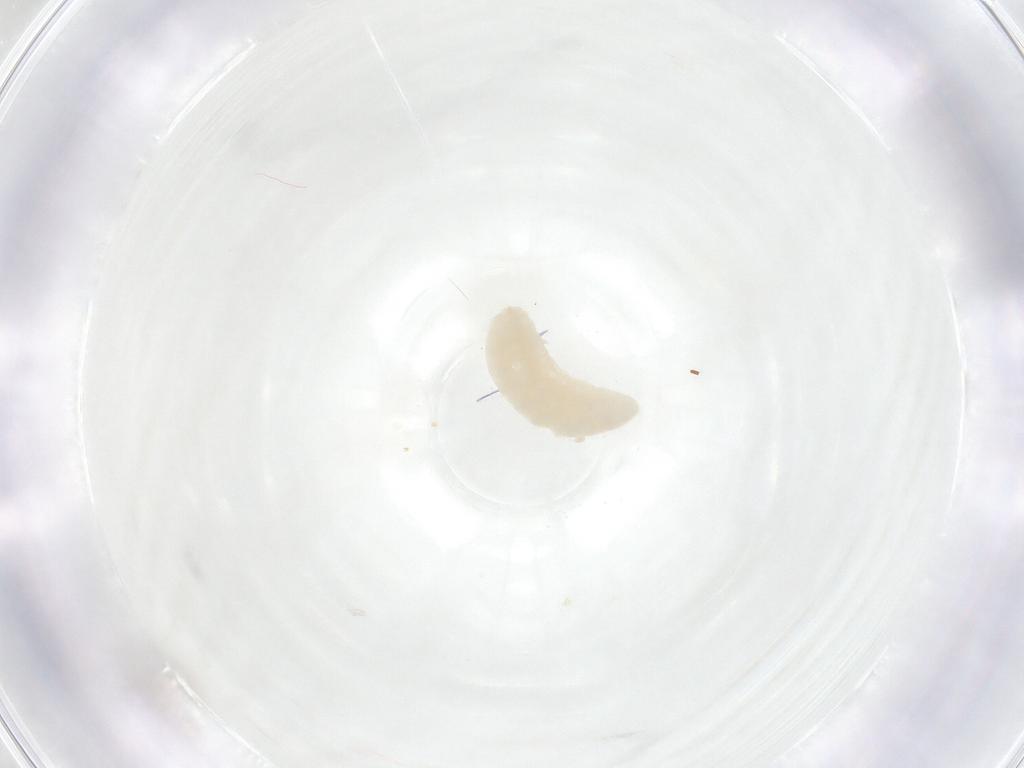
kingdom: Animalia
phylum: Arthropoda
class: Insecta
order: Diptera
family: Cecidomyiidae
